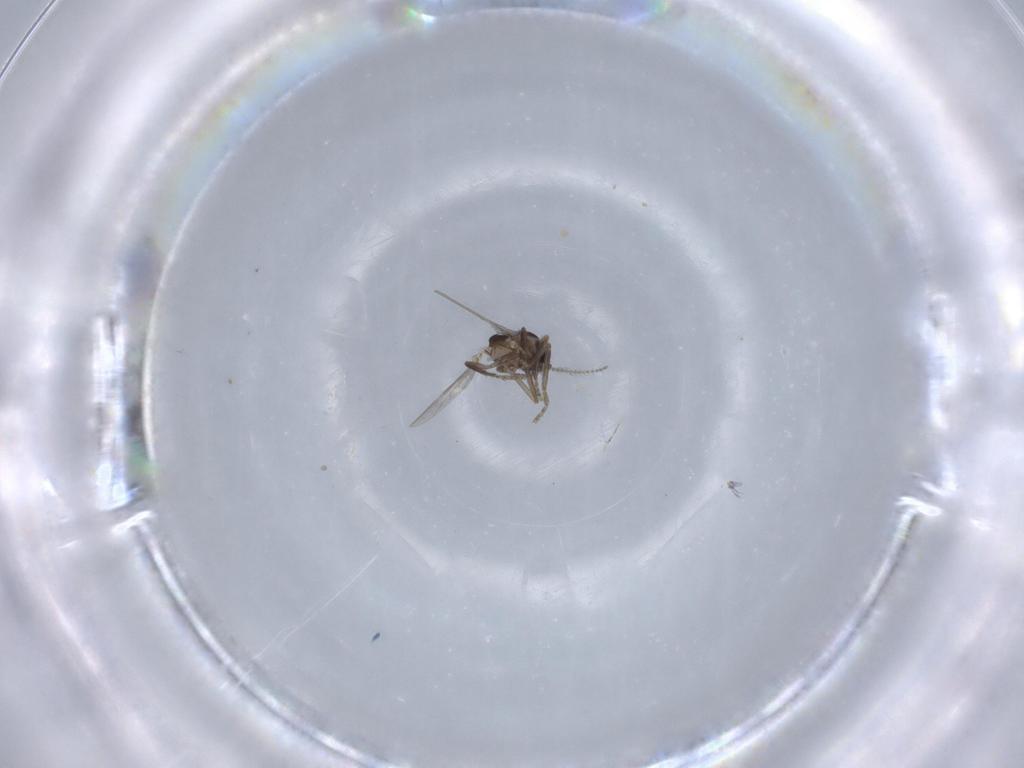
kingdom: Animalia
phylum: Arthropoda
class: Insecta
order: Diptera
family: Ceratopogonidae
